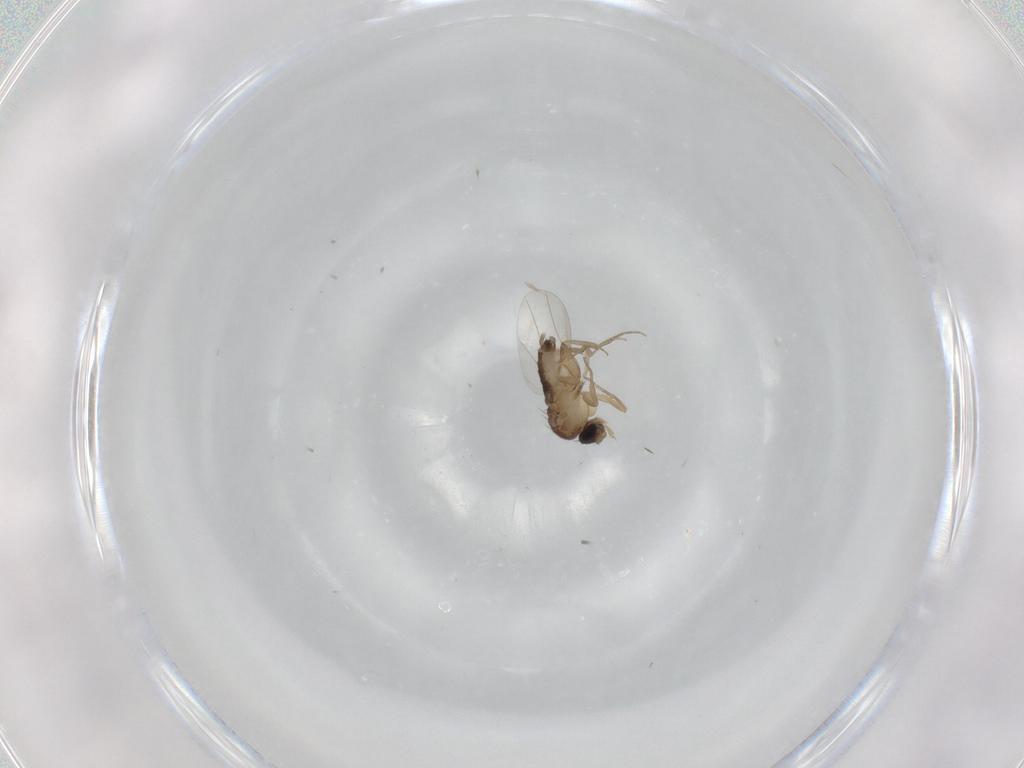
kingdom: Animalia
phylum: Arthropoda
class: Insecta
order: Diptera
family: Phoridae
